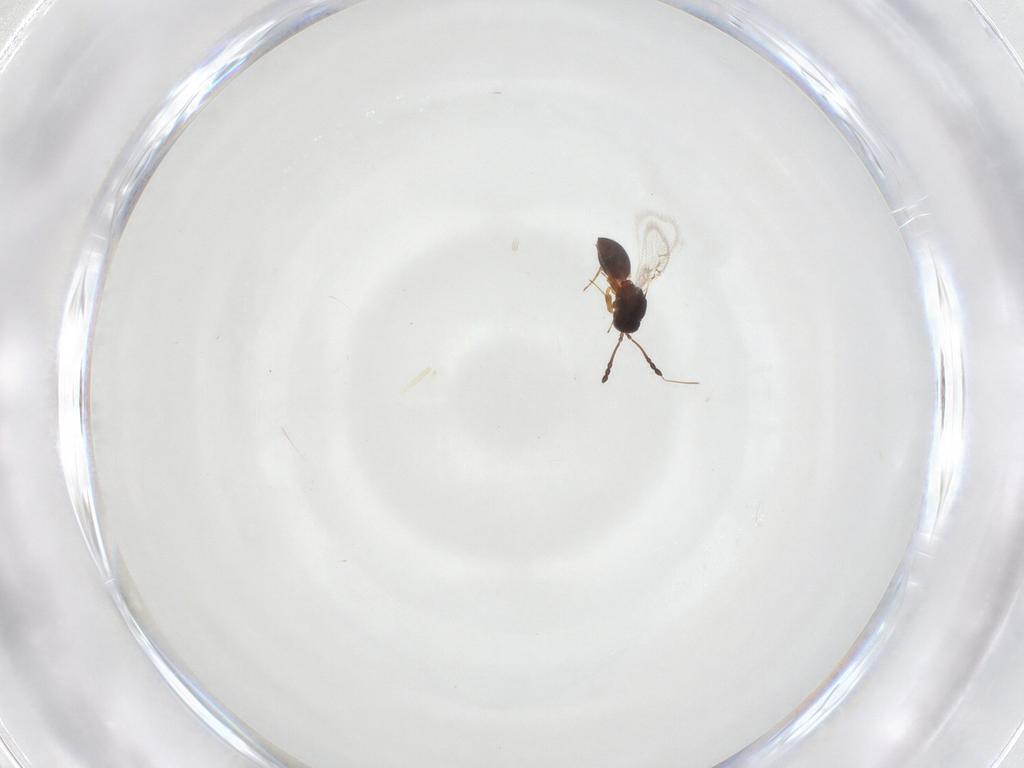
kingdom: Animalia
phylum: Arthropoda
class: Insecta
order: Hymenoptera
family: Figitidae
